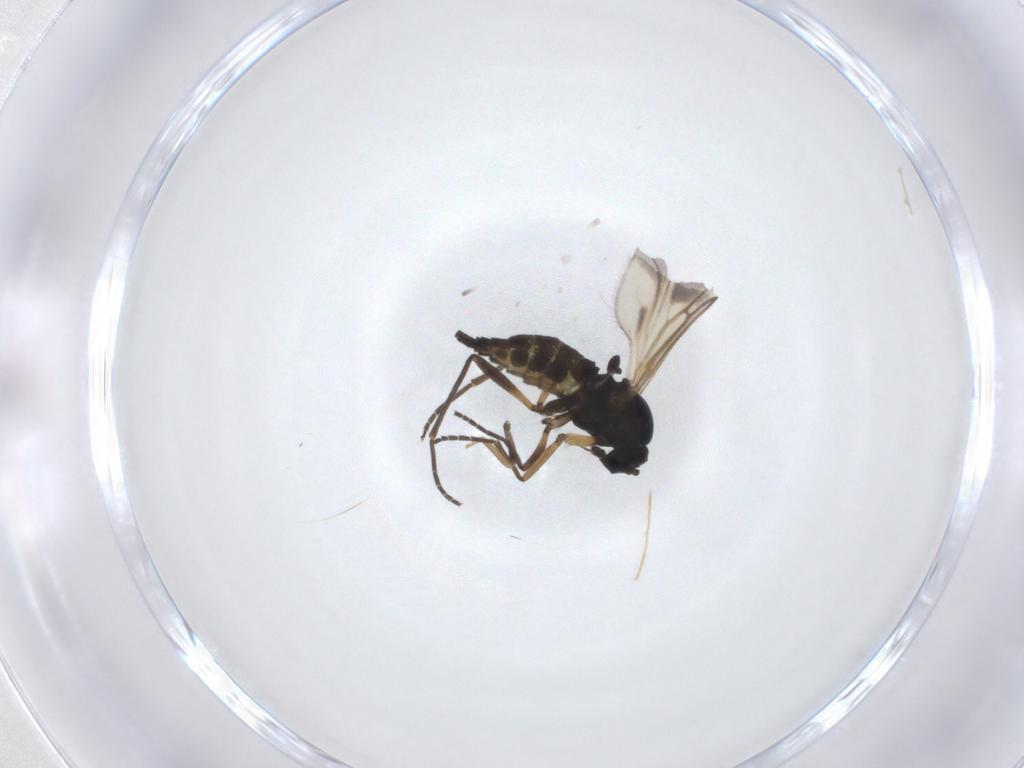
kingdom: Animalia
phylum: Arthropoda
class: Insecta
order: Diptera
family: Sciaridae
